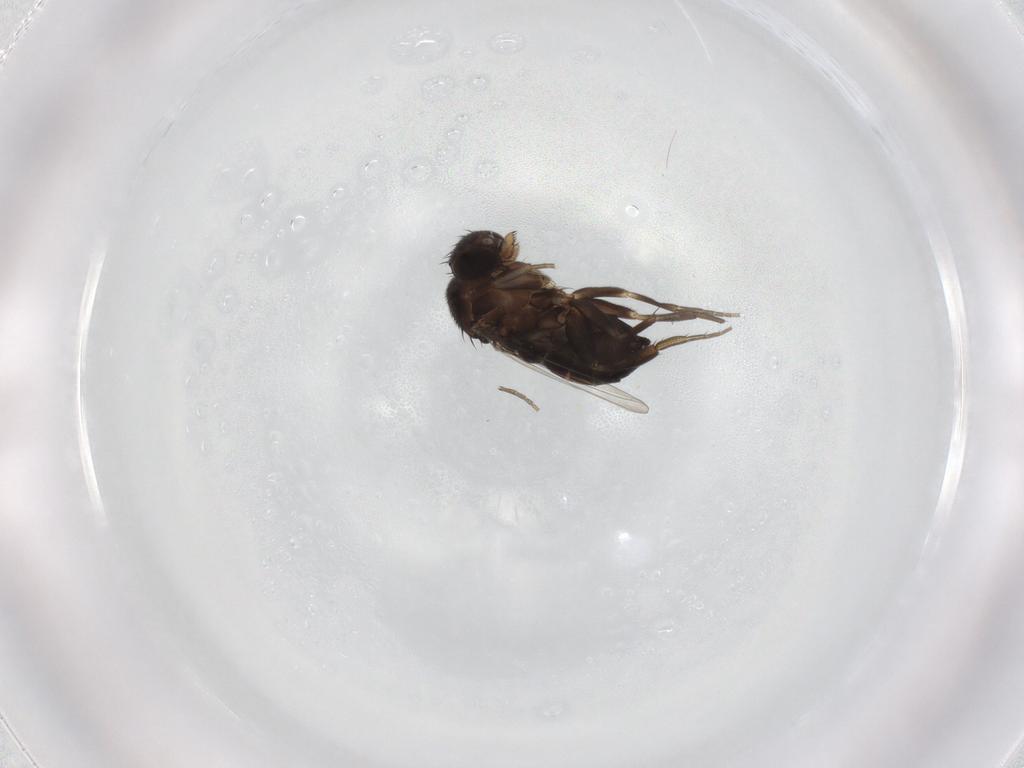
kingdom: Animalia
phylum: Arthropoda
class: Insecta
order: Diptera
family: Phoridae
